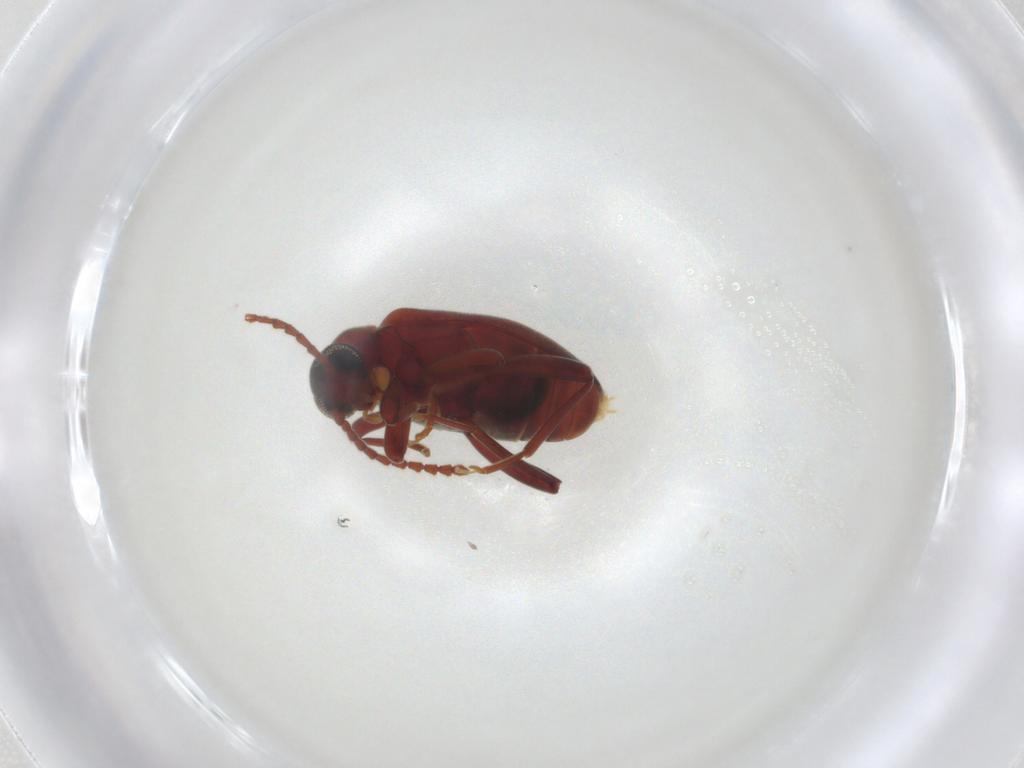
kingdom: Animalia
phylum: Arthropoda
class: Insecta
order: Coleoptera
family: Aderidae
